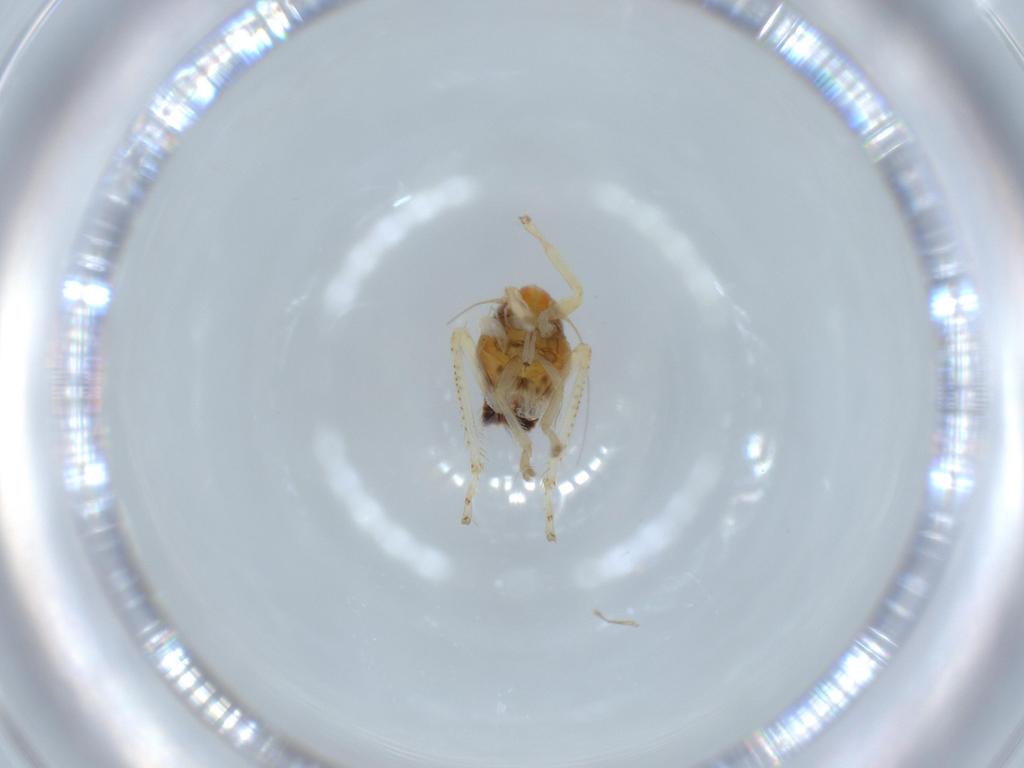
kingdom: Animalia
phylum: Arthropoda
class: Insecta
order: Hemiptera
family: Cicadellidae
